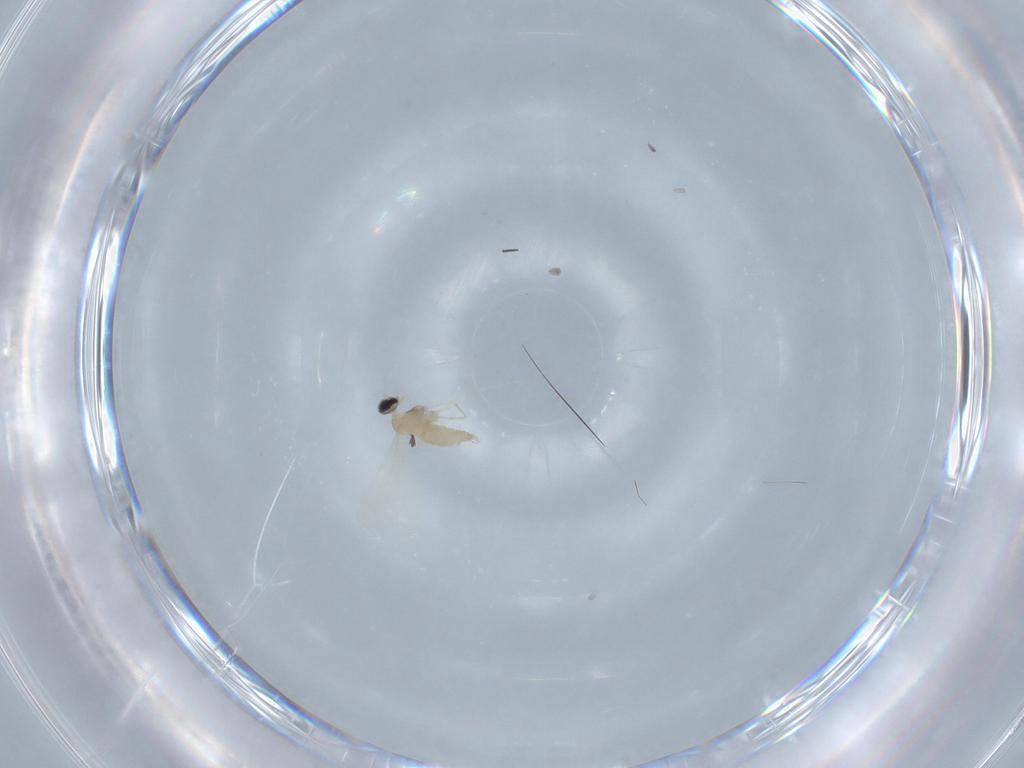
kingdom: Animalia
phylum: Arthropoda
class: Insecta
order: Diptera
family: Cecidomyiidae
